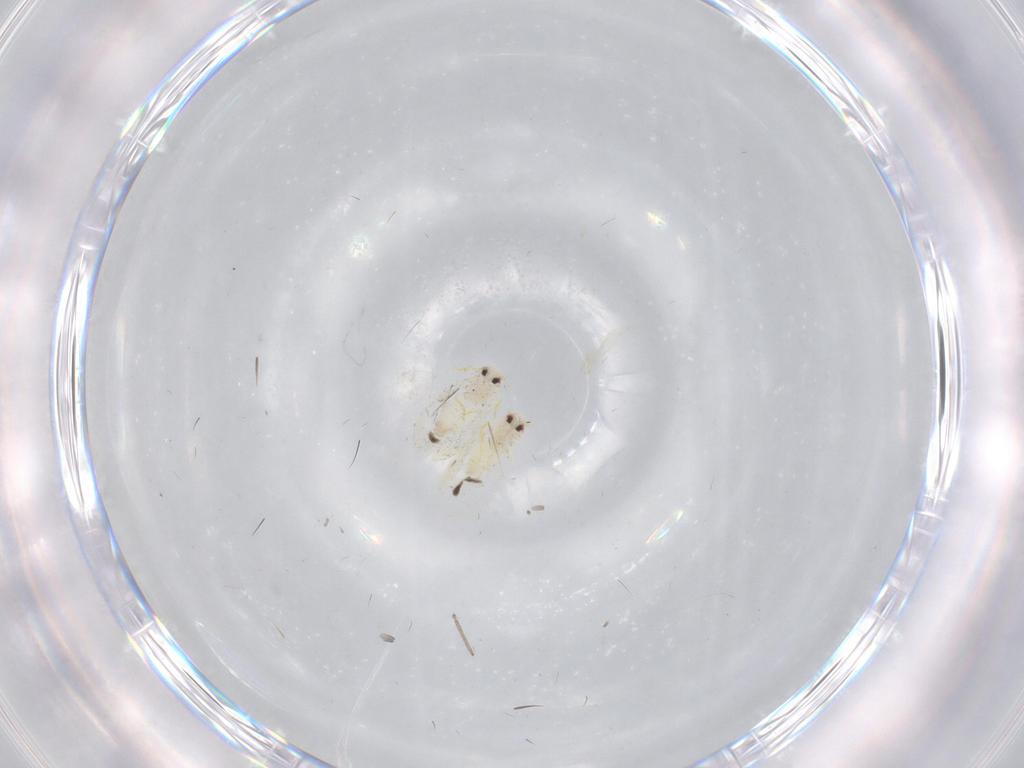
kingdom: Animalia
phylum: Arthropoda
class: Insecta
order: Hemiptera
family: Aleyrodidae
